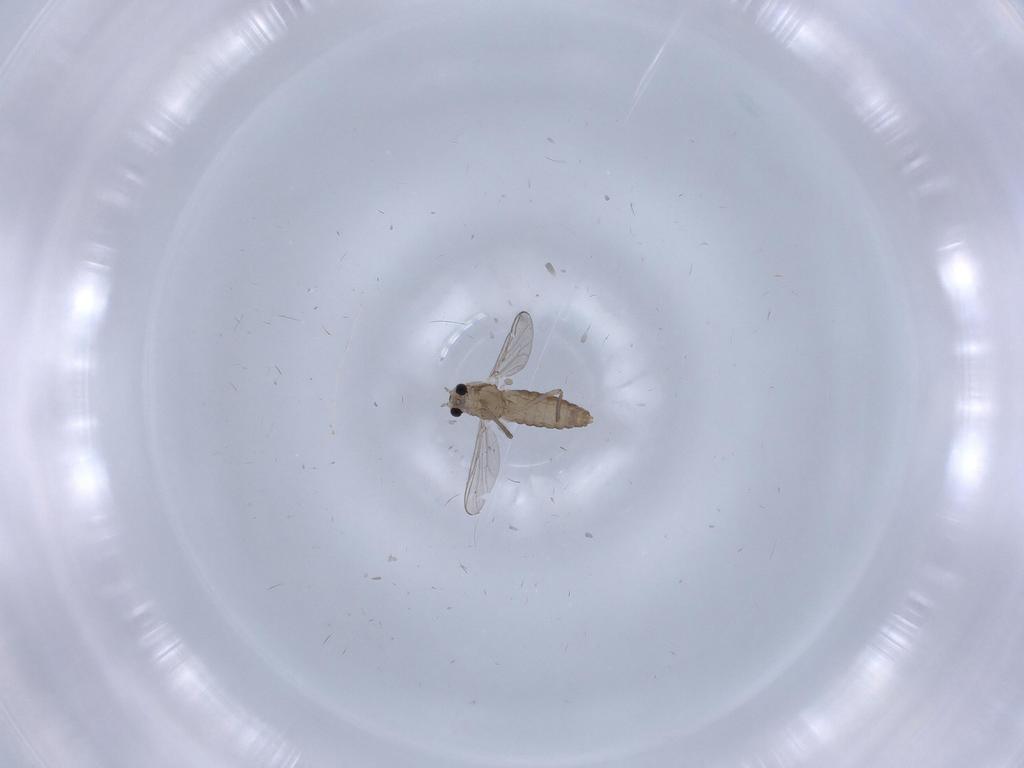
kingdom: Animalia
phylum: Arthropoda
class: Insecta
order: Diptera
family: Chironomidae
